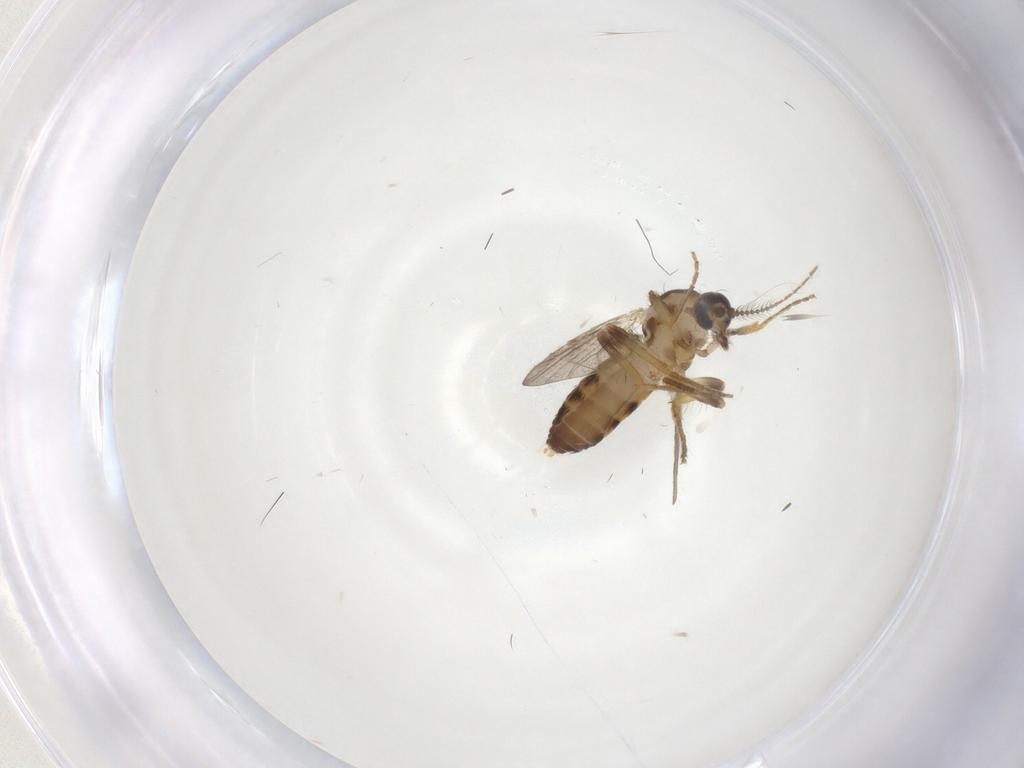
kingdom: Animalia
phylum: Arthropoda
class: Insecta
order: Diptera
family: Ceratopogonidae
